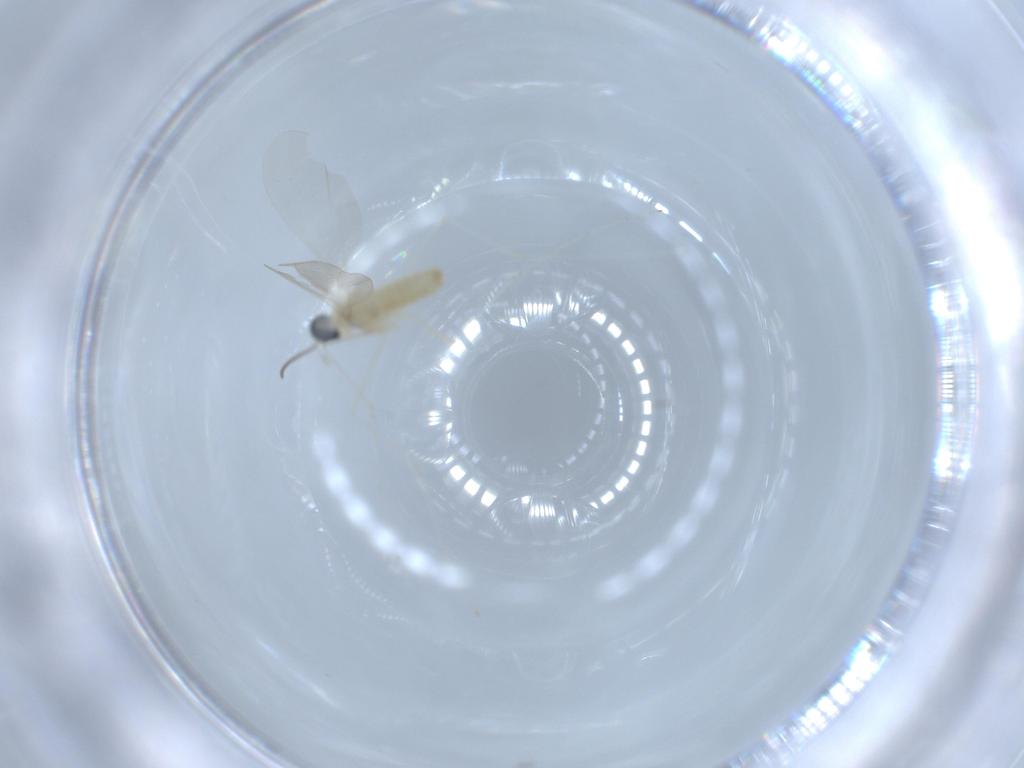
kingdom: Animalia
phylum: Arthropoda
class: Insecta
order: Diptera
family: Cecidomyiidae
